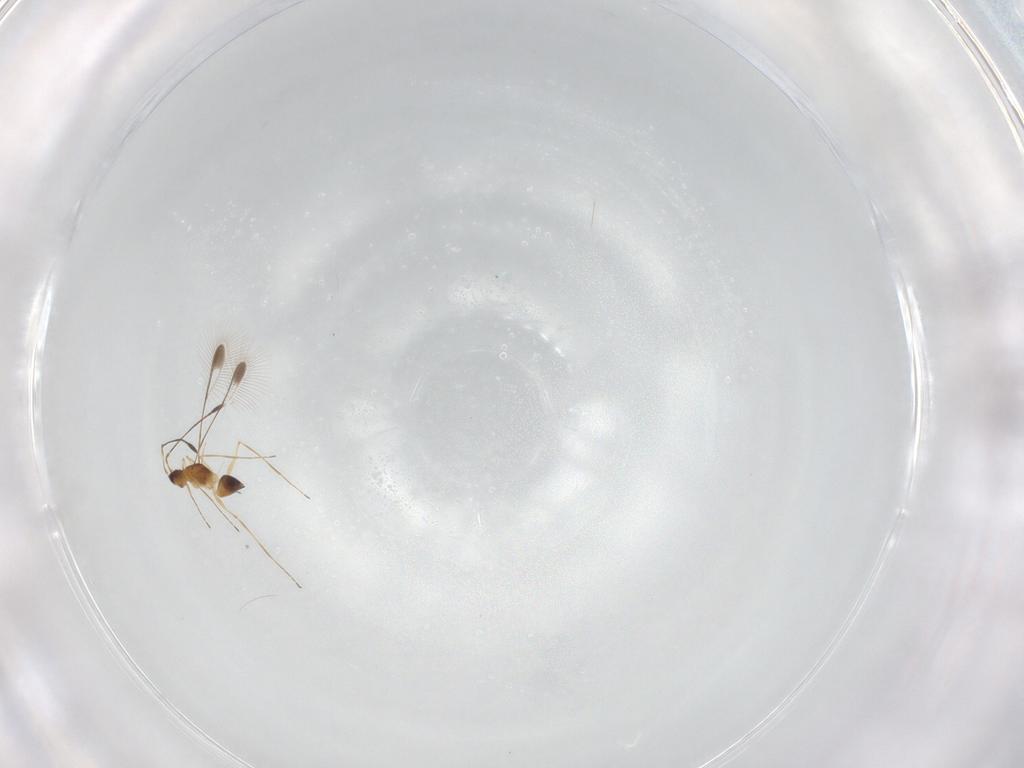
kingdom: Animalia
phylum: Arthropoda
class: Insecta
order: Hymenoptera
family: Mymaridae
